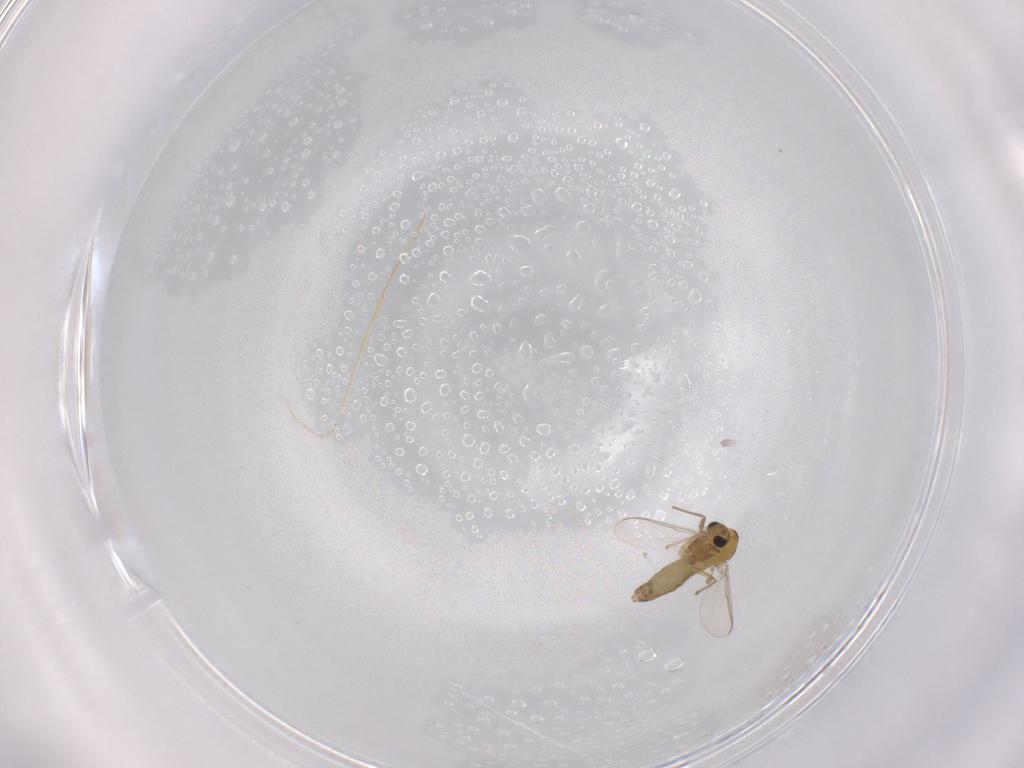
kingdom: Animalia
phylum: Arthropoda
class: Insecta
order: Diptera
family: Chironomidae
